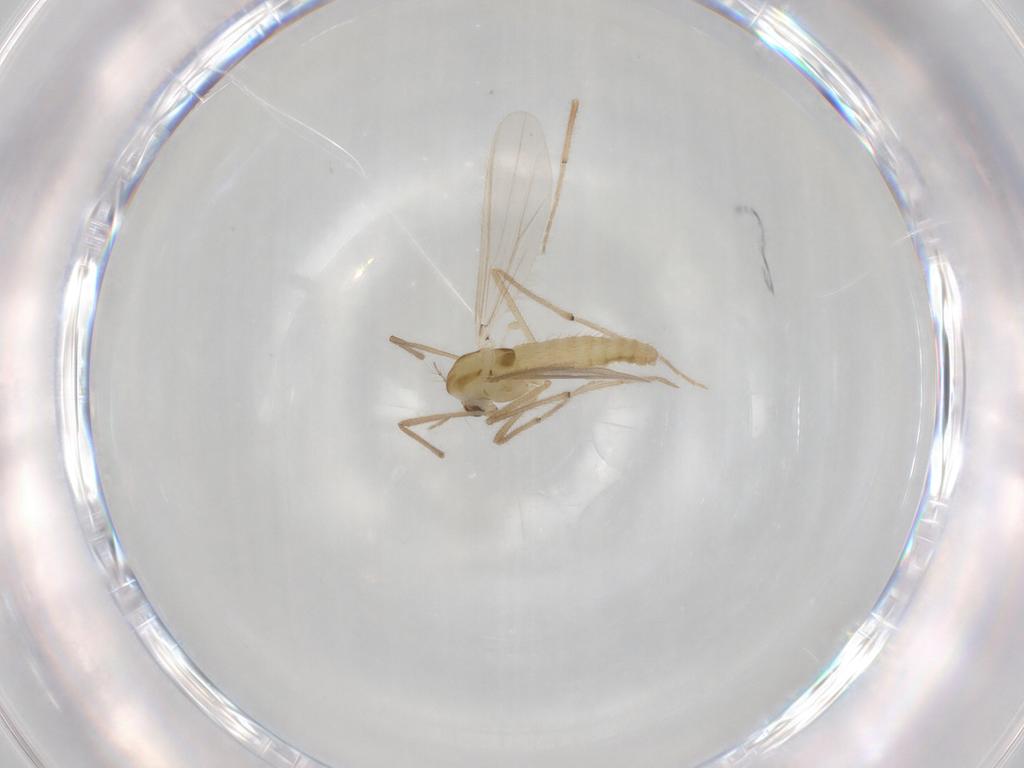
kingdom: Animalia
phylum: Arthropoda
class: Insecta
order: Diptera
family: Chironomidae
